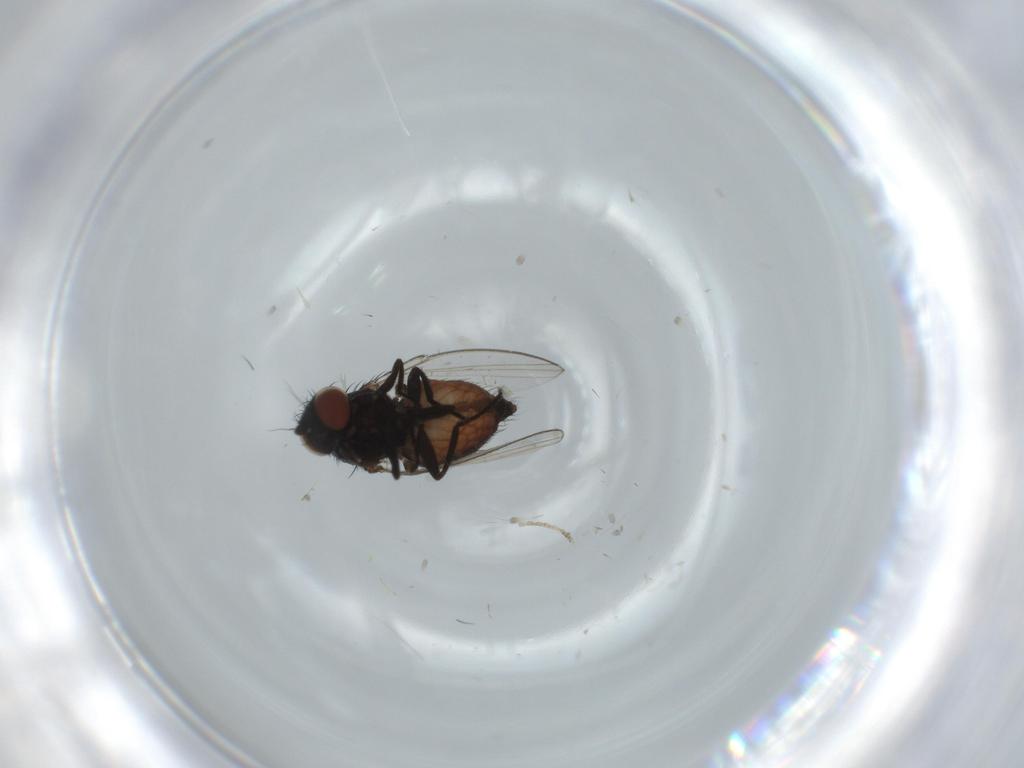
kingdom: Animalia
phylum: Arthropoda
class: Insecta
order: Diptera
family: Milichiidae
